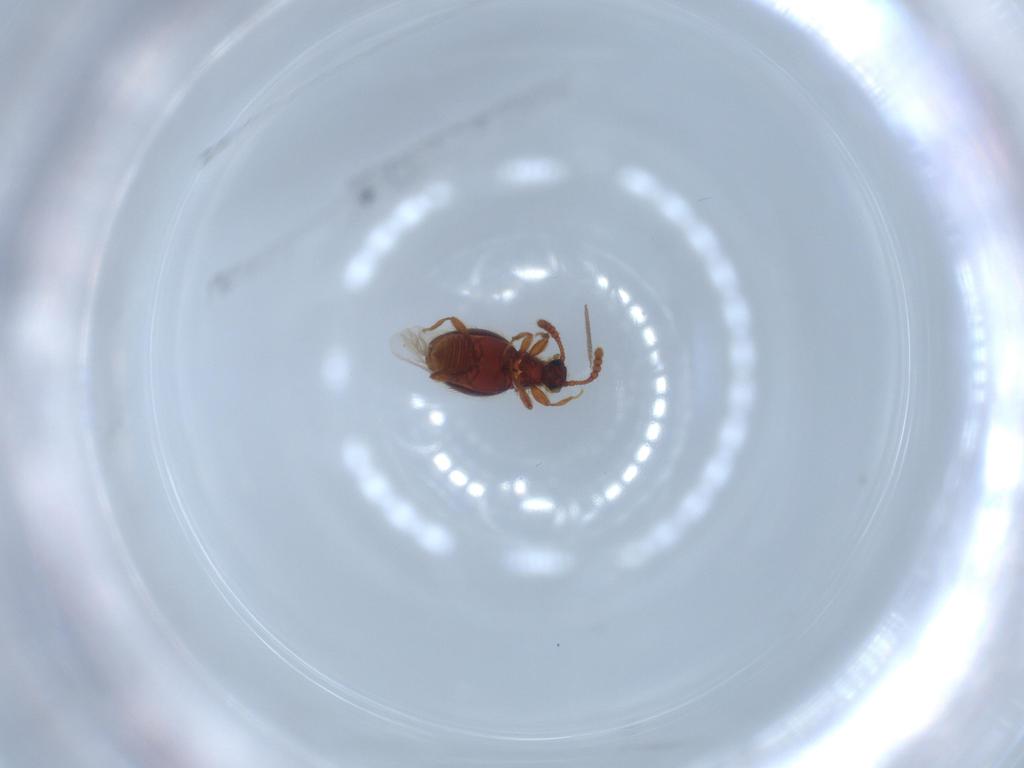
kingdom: Animalia
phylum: Arthropoda
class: Insecta
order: Coleoptera
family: Staphylinidae
